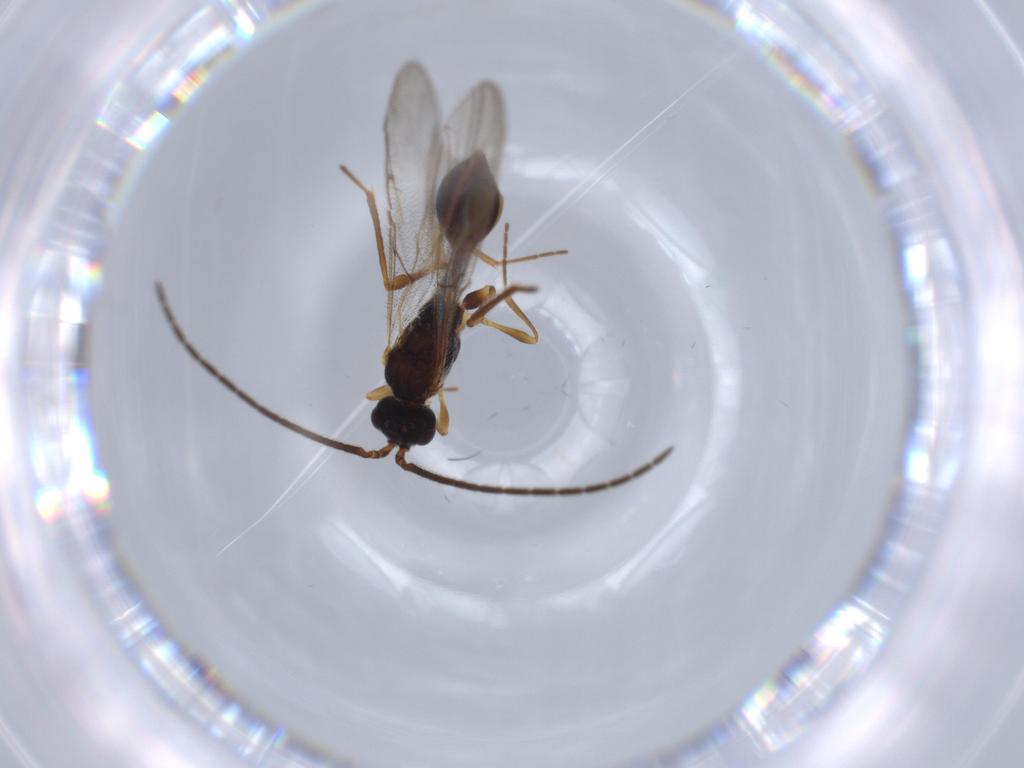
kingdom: Animalia
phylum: Arthropoda
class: Insecta
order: Hymenoptera
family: Diapriidae
